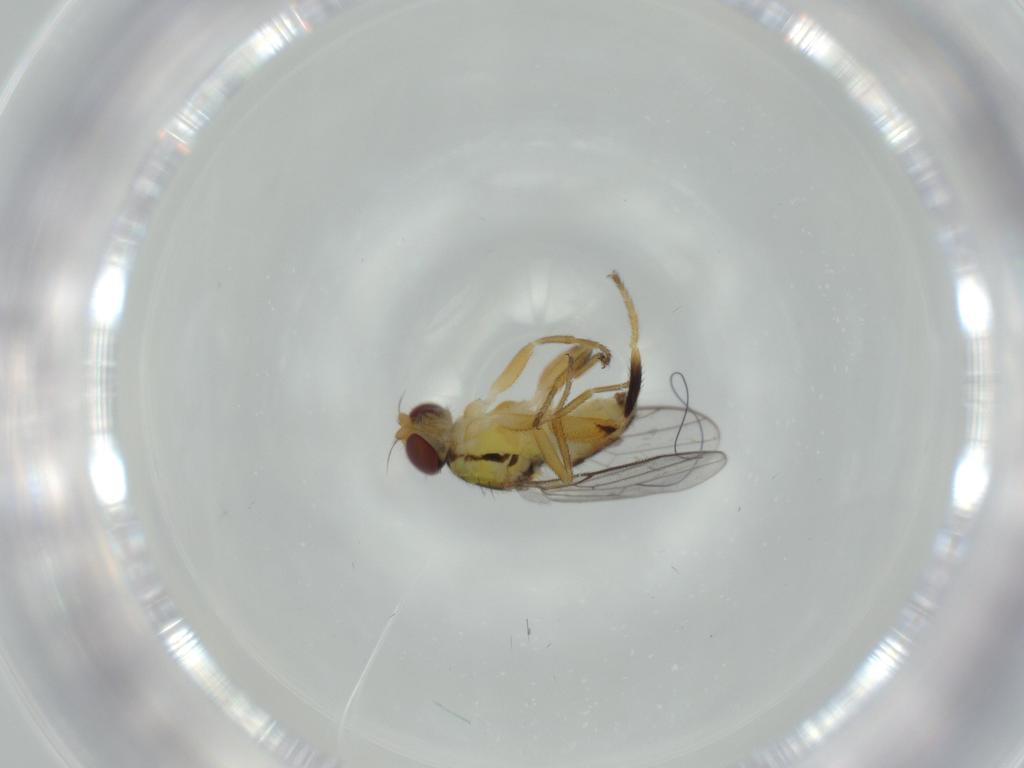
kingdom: Animalia
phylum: Arthropoda
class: Insecta
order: Diptera
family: Chloropidae
